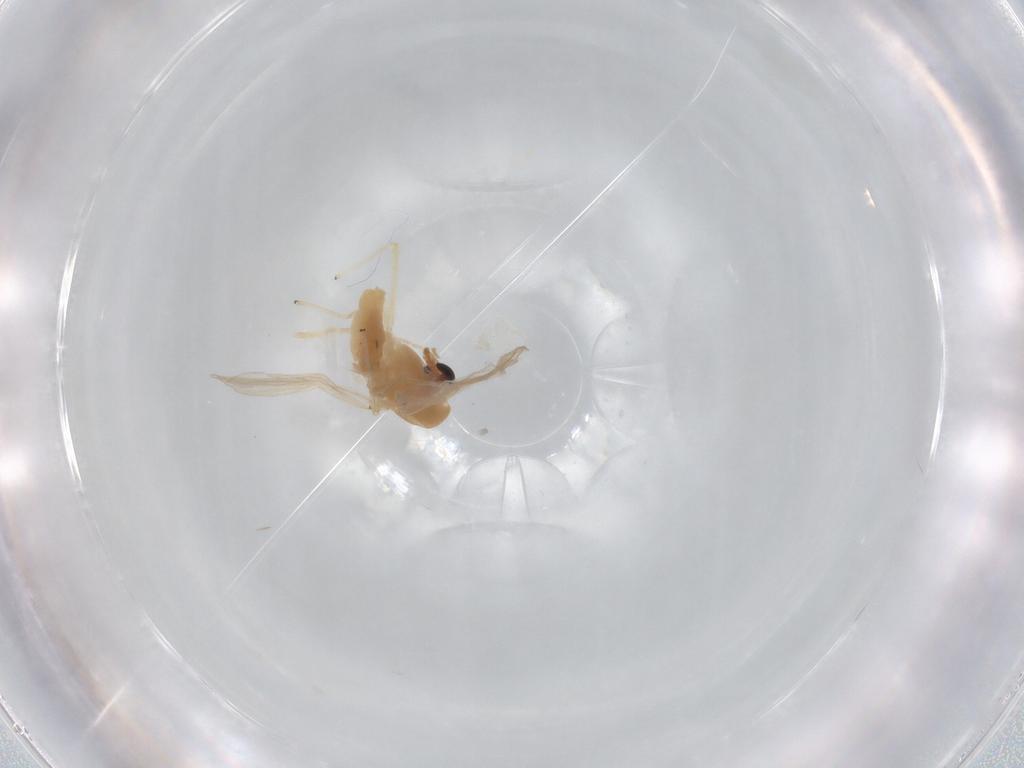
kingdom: Animalia
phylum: Arthropoda
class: Insecta
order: Diptera
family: Chironomidae
